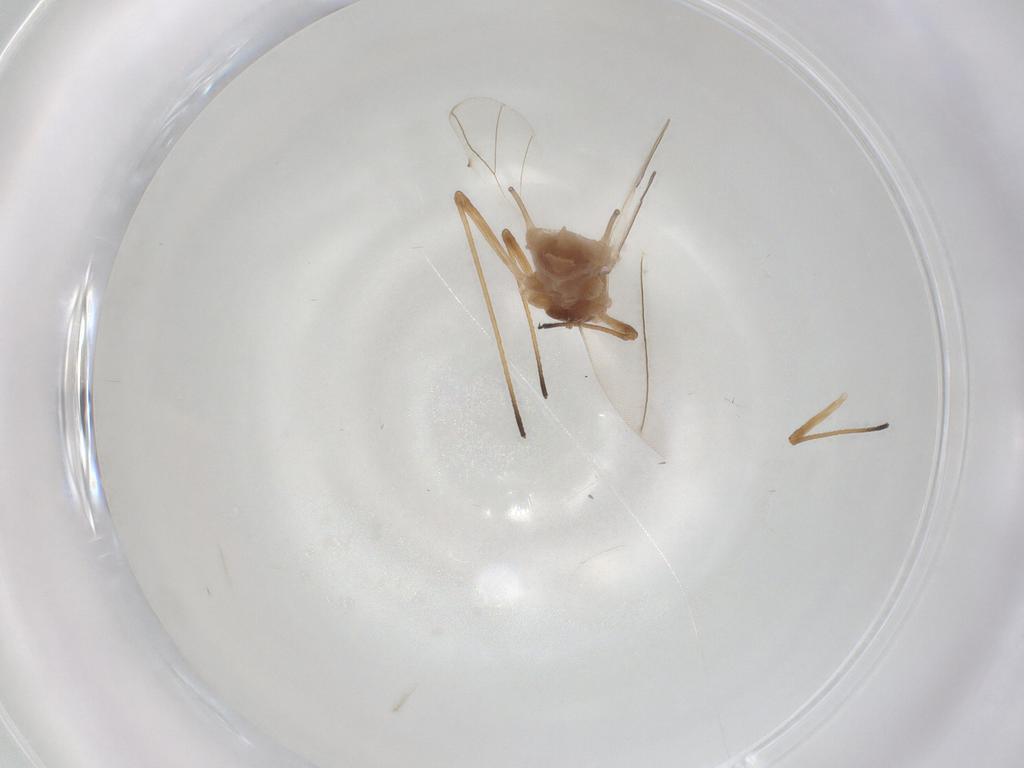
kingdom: Animalia
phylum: Arthropoda
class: Insecta
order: Hemiptera
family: Aphididae
